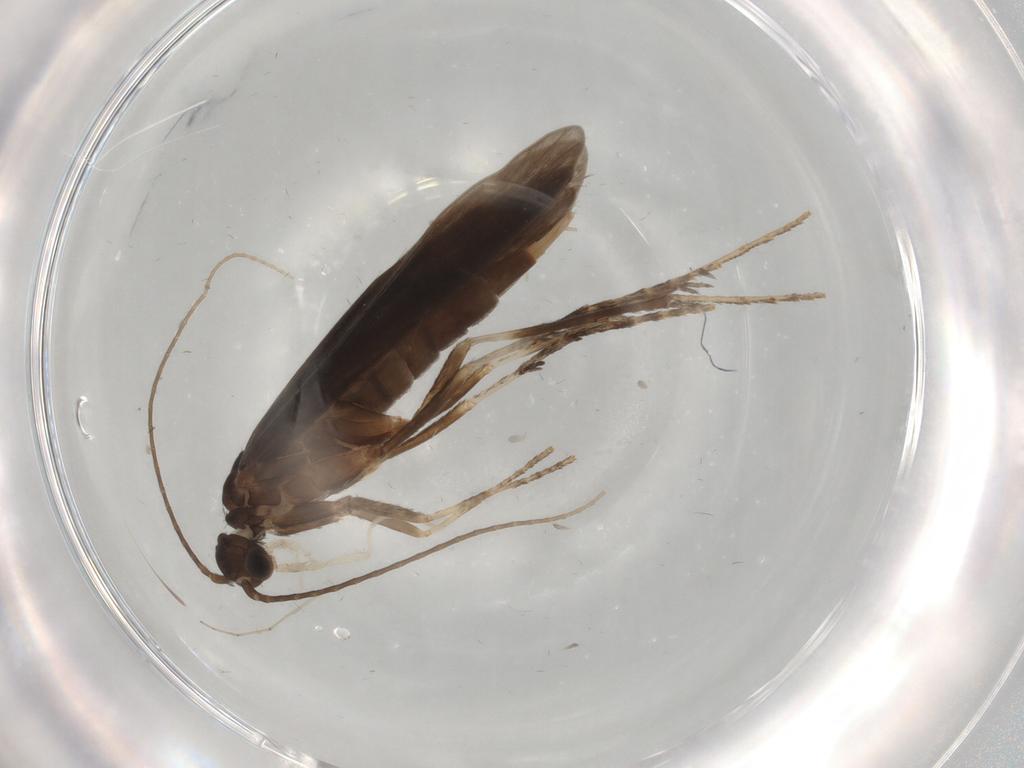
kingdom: Animalia
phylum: Arthropoda
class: Insecta
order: Trichoptera
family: Xiphocentronidae
